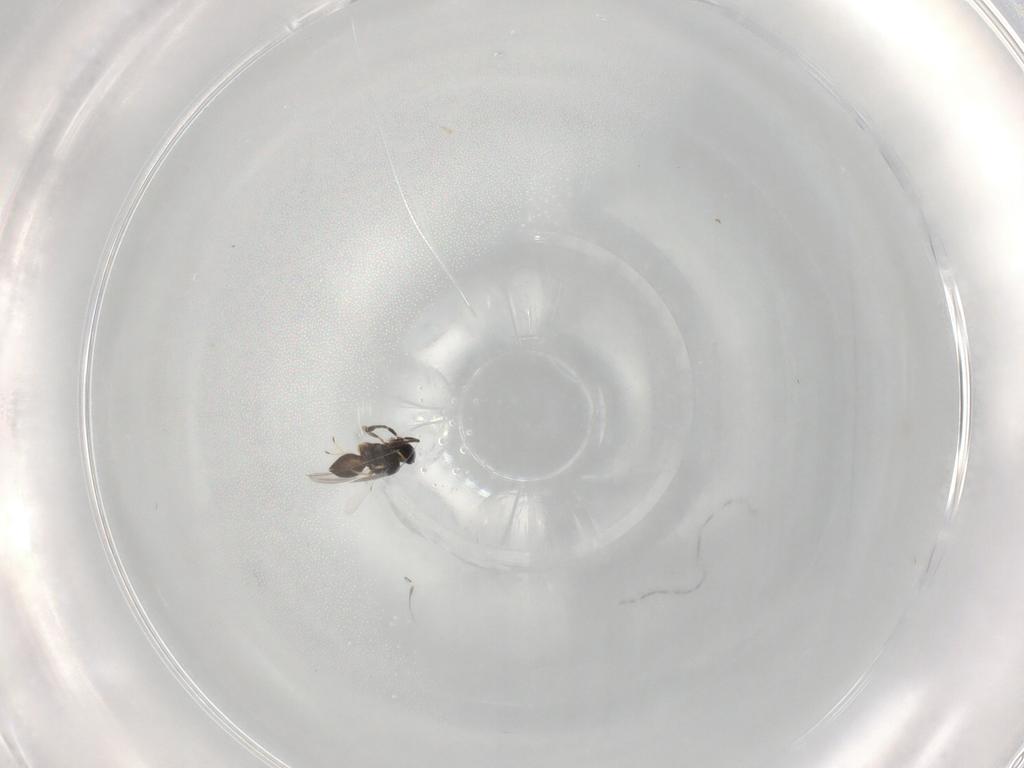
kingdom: Animalia
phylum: Arthropoda
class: Insecta
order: Hymenoptera
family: Scelionidae
